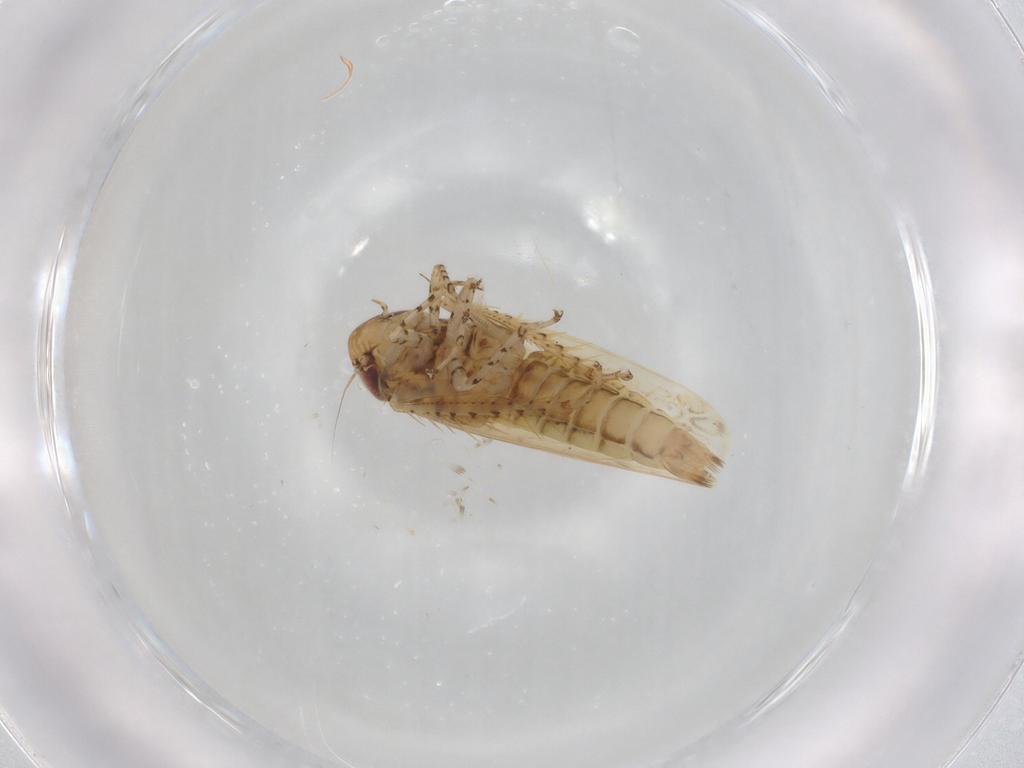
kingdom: Animalia
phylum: Arthropoda
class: Insecta
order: Hemiptera
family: Cicadellidae
